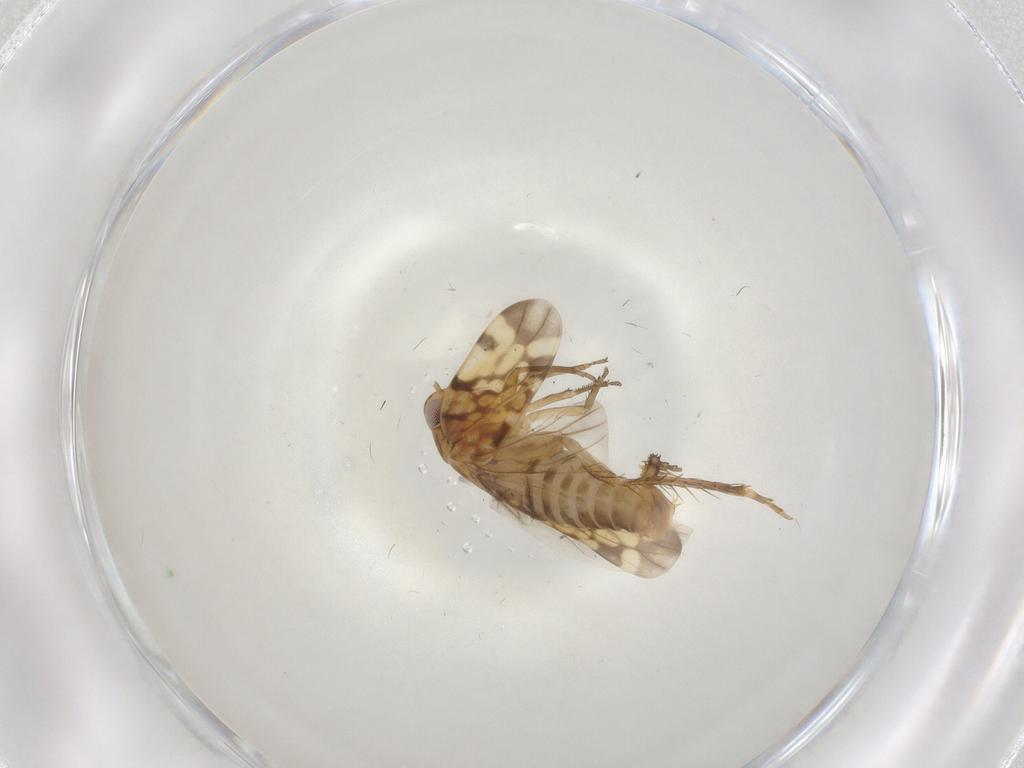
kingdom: Animalia
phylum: Arthropoda
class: Insecta
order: Hemiptera
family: Cicadellidae
